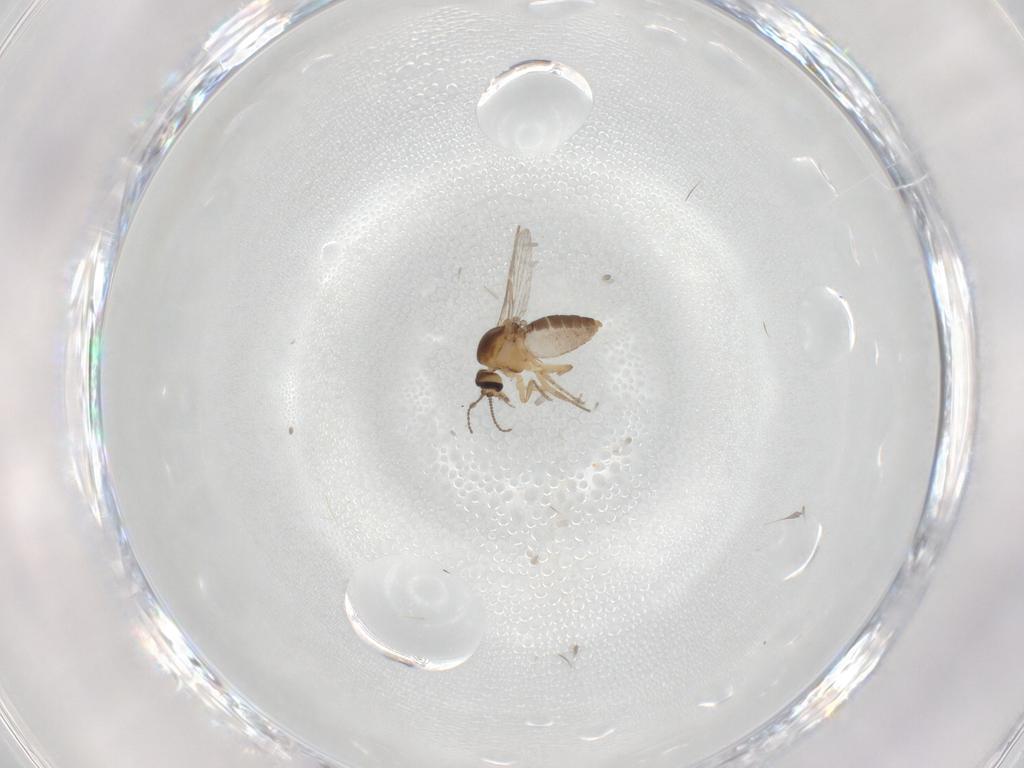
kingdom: Animalia
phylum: Arthropoda
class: Insecta
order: Diptera
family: Ceratopogonidae
